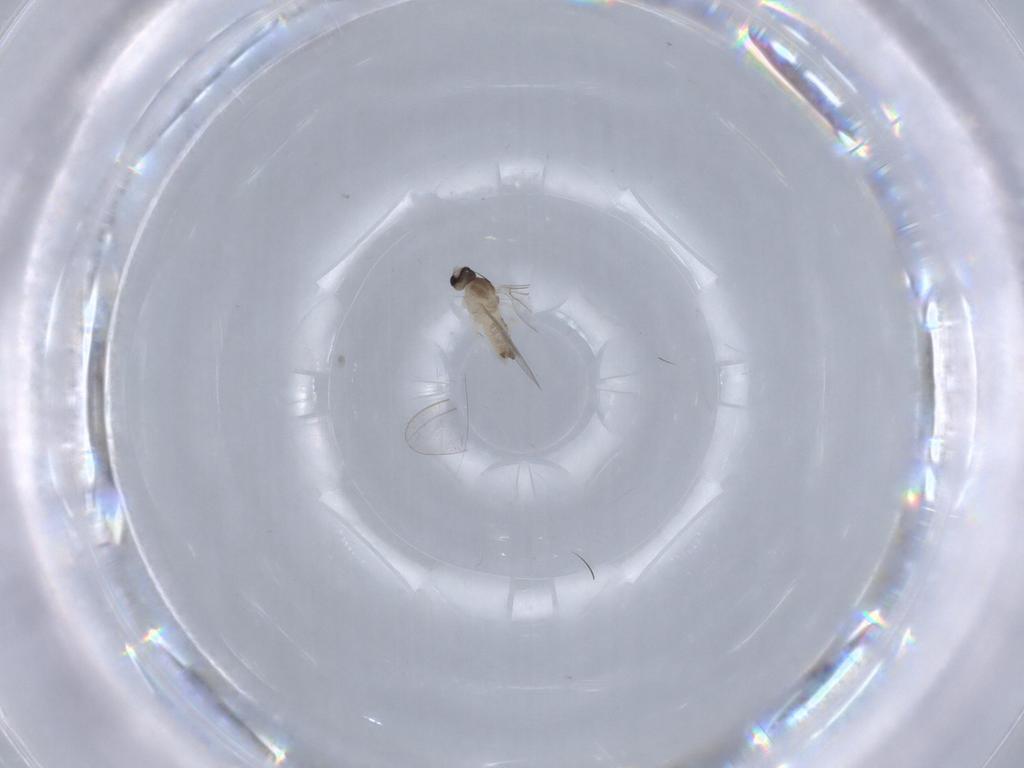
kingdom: Animalia
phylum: Arthropoda
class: Insecta
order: Diptera
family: Cecidomyiidae
